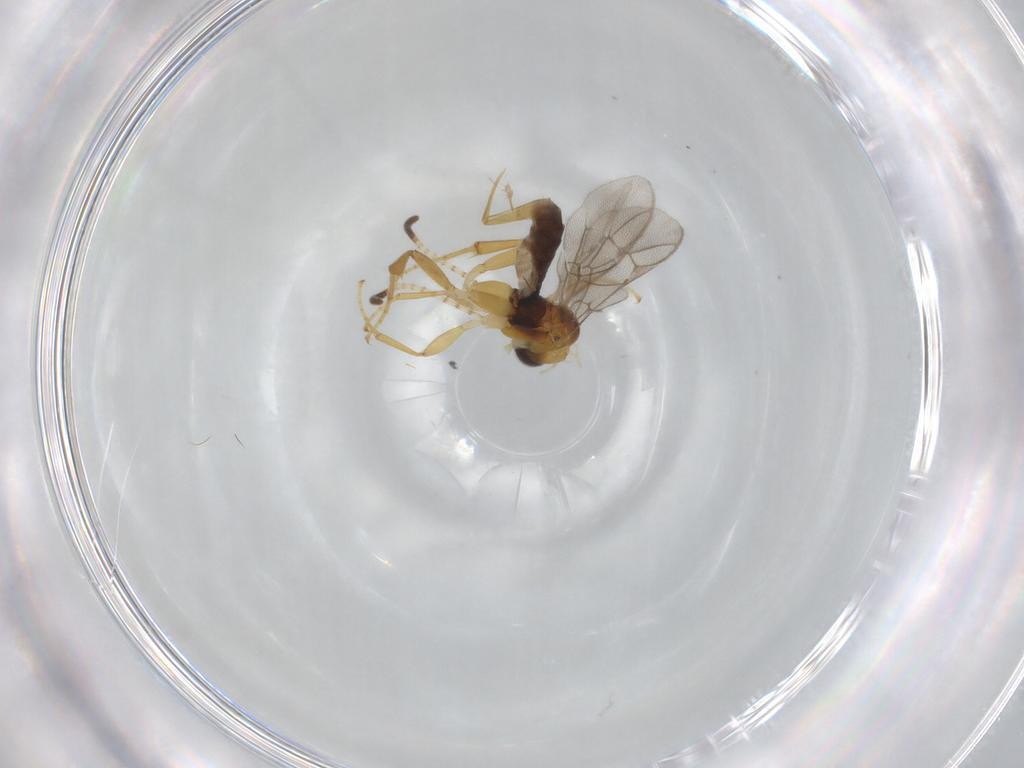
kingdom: Animalia
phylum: Arthropoda
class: Insecta
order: Hymenoptera
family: Ichneumonidae
